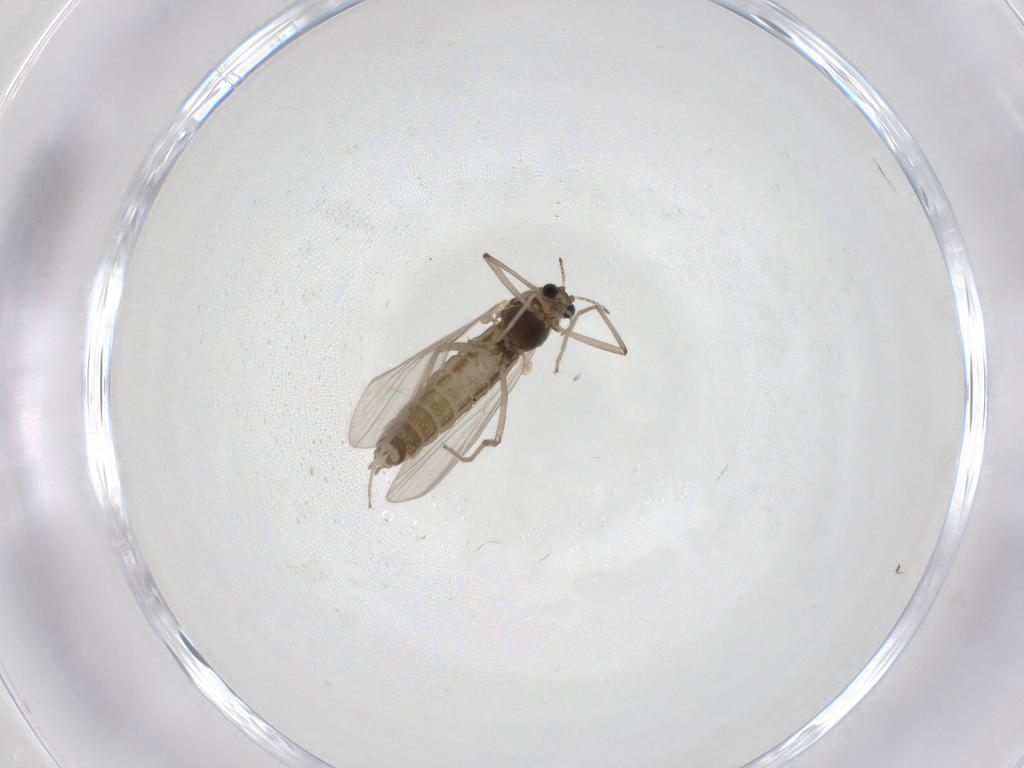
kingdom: Animalia
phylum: Arthropoda
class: Insecta
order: Diptera
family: Chironomidae
